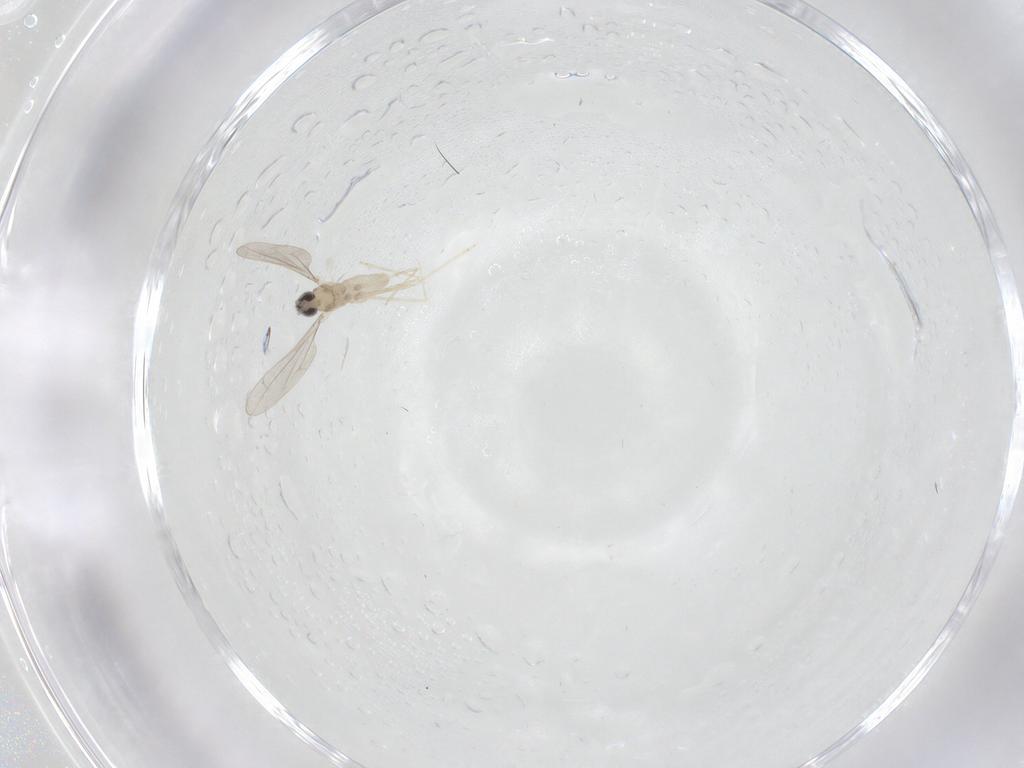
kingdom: Animalia
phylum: Arthropoda
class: Insecta
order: Diptera
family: Cecidomyiidae
